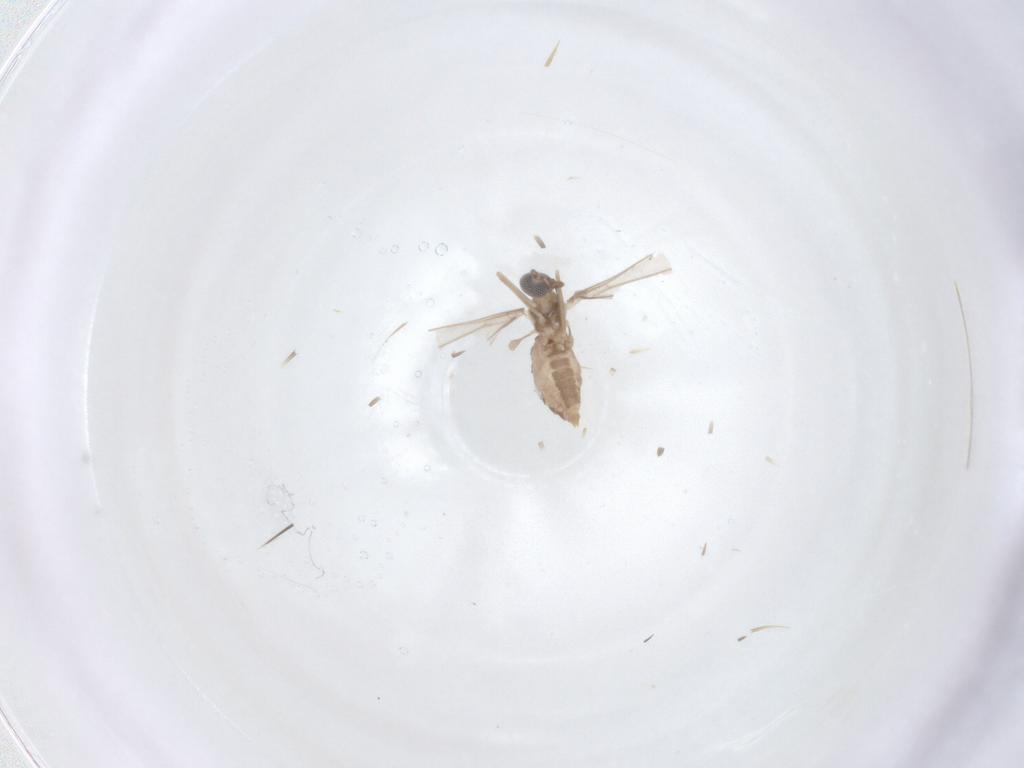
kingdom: Animalia
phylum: Arthropoda
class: Insecta
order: Diptera
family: Cecidomyiidae
